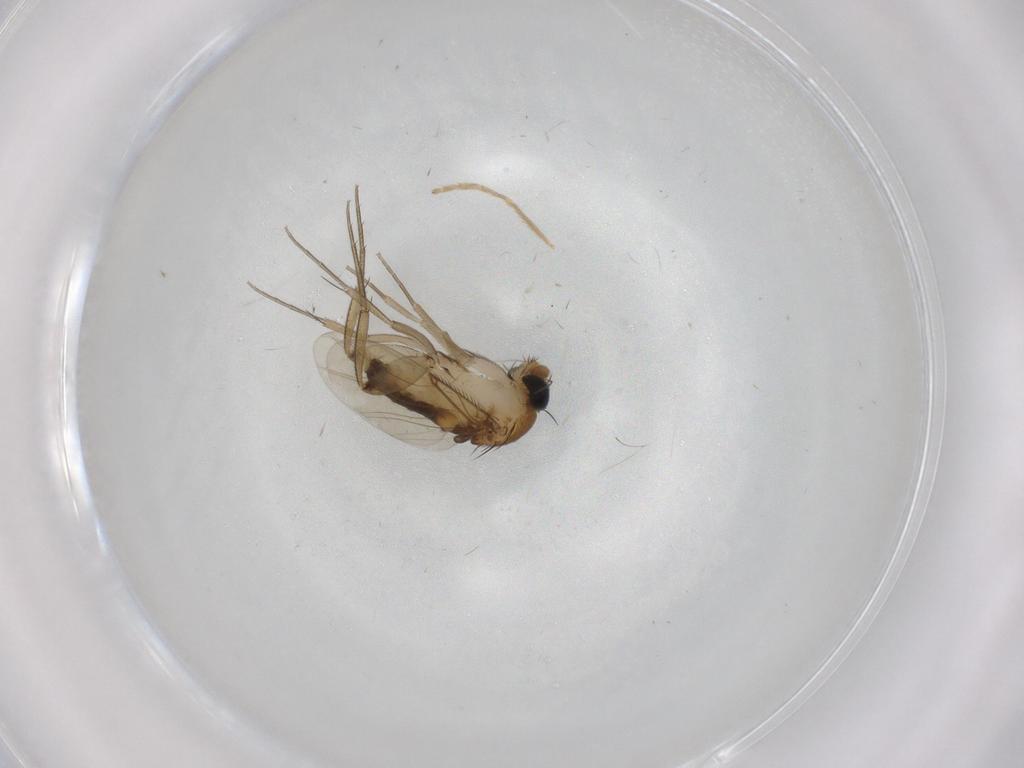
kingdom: Animalia
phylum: Arthropoda
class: Insecta
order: Diptera
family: Phoridae
